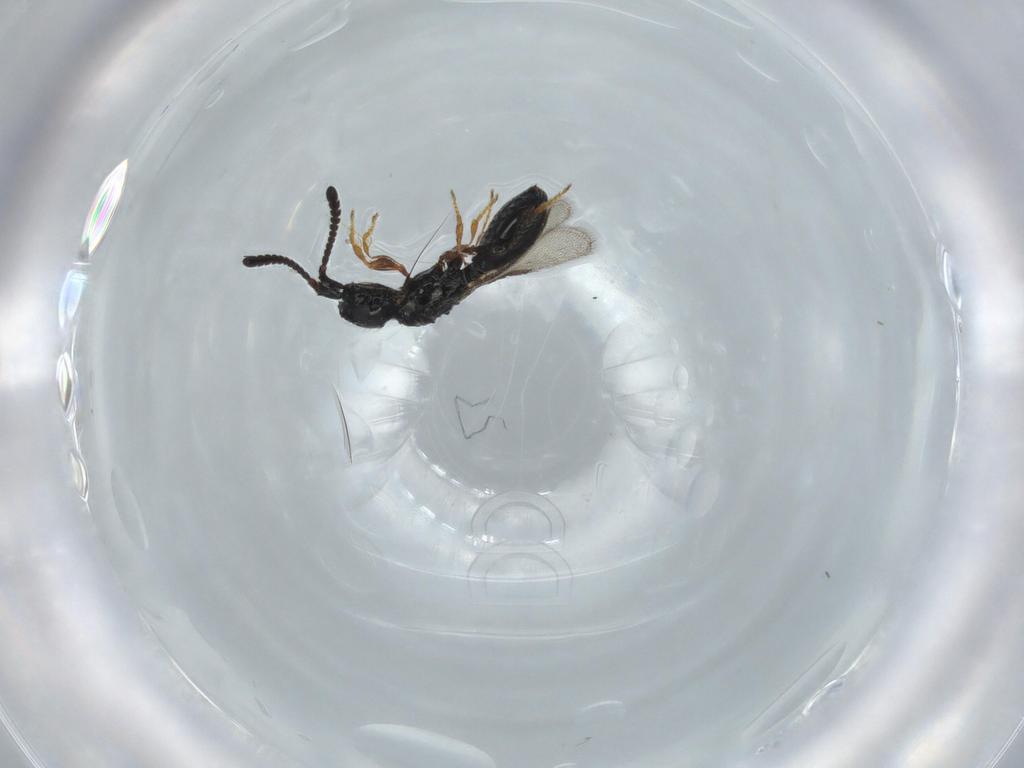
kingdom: Animalia
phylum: Arthropoda
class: Insecta
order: Hymenoptera
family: Diapriidae
